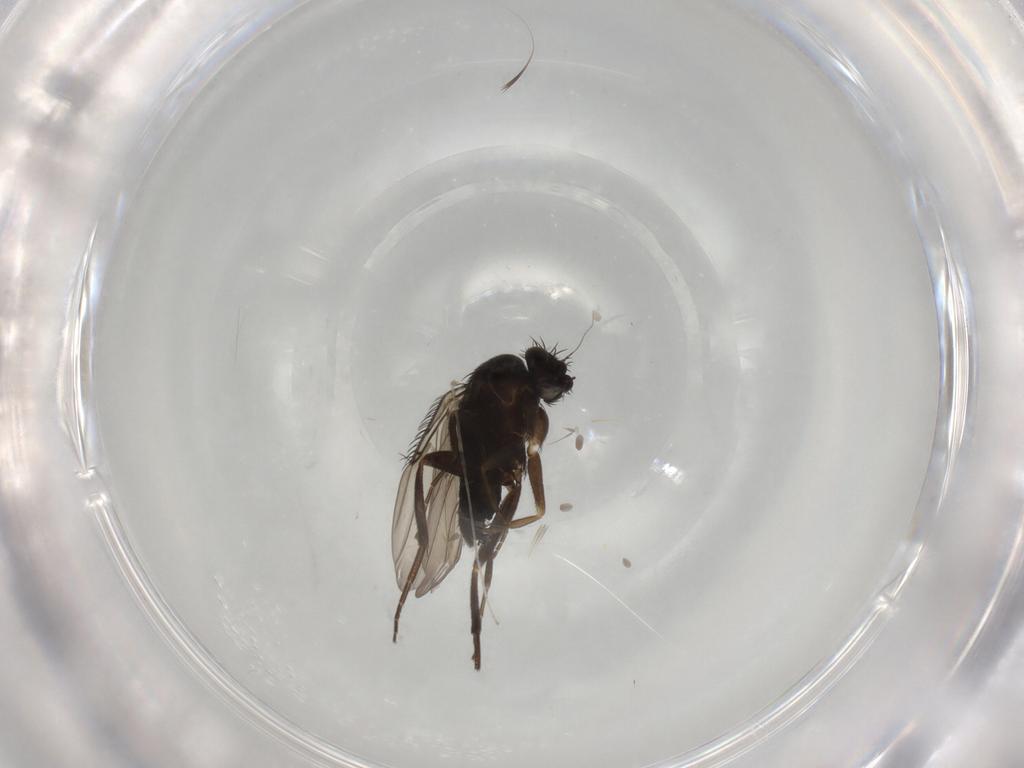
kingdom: Animalia
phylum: Arthropoda
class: Insecta
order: Diptera
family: Phoridae
